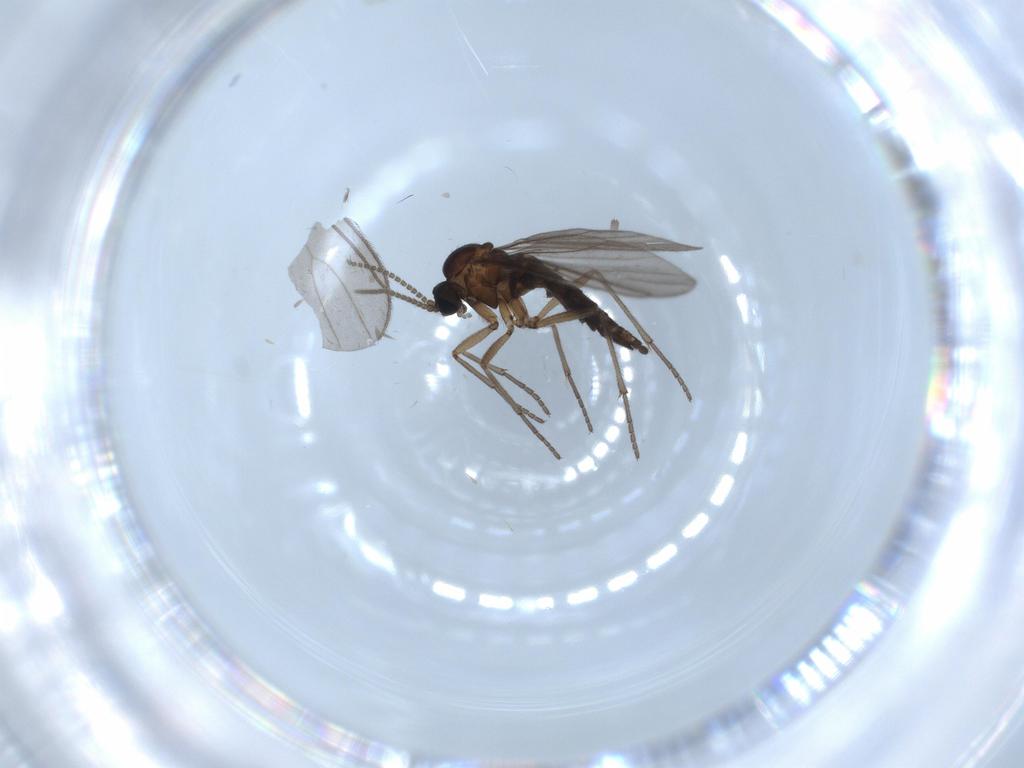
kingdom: Animalia
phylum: Arthropoda
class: Insecta
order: Diptera
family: Sciaridae
